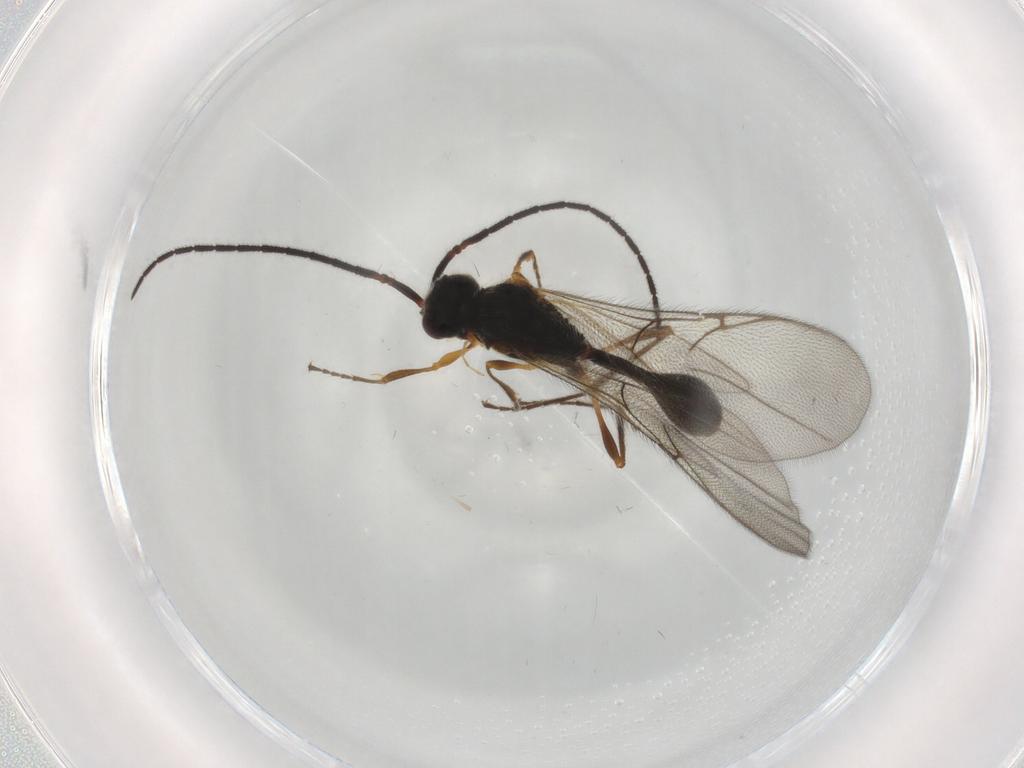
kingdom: Animalia
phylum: Arthropoda
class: Insecta
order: Hymenoptera
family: Diapriidae
